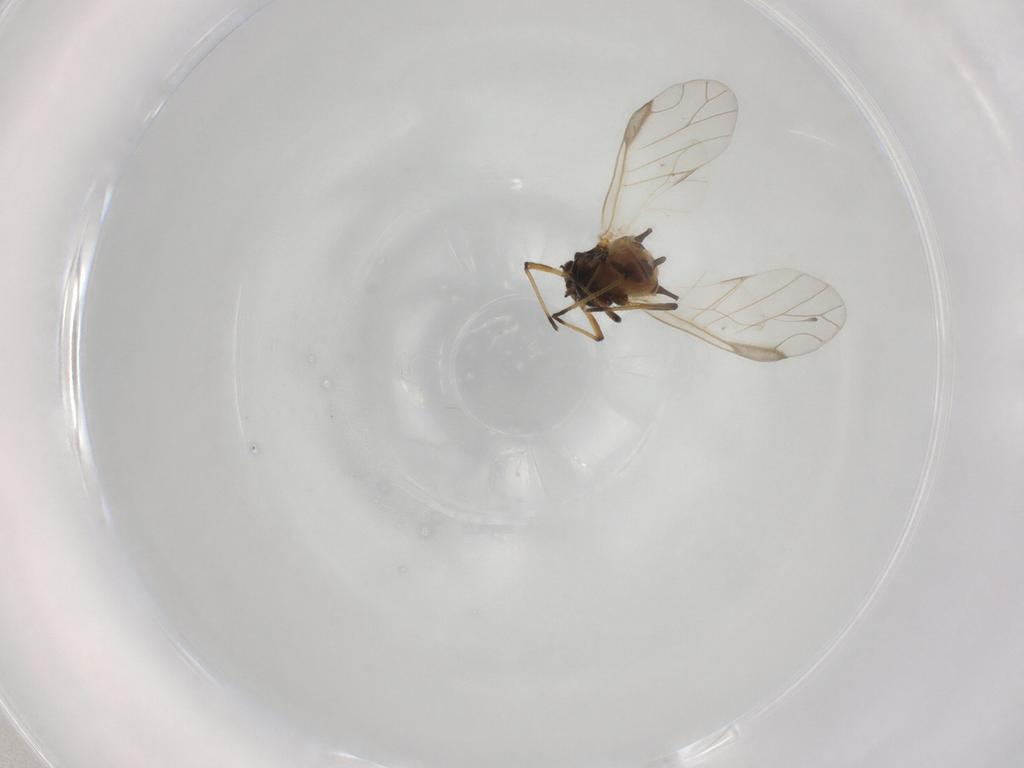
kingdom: Animalia
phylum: Arthropoda
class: Insecta
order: Hemiptera
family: Aphididae
